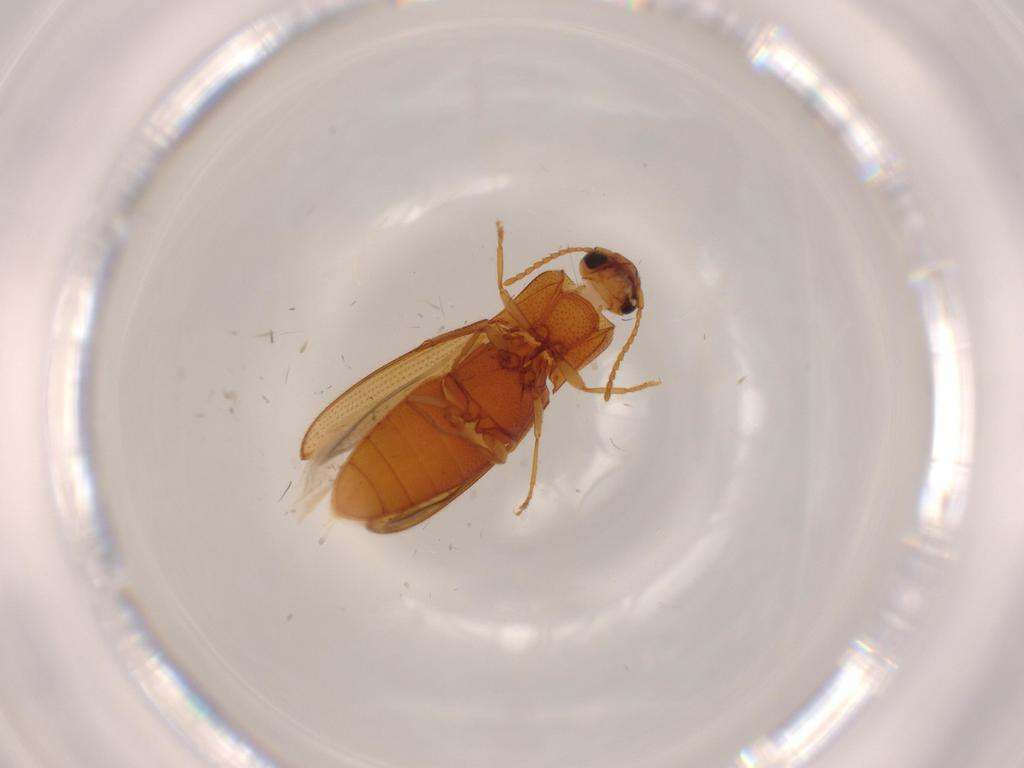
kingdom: Animalia
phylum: Arthropoda
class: Insecta
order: Coleoptera
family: Elateridae
